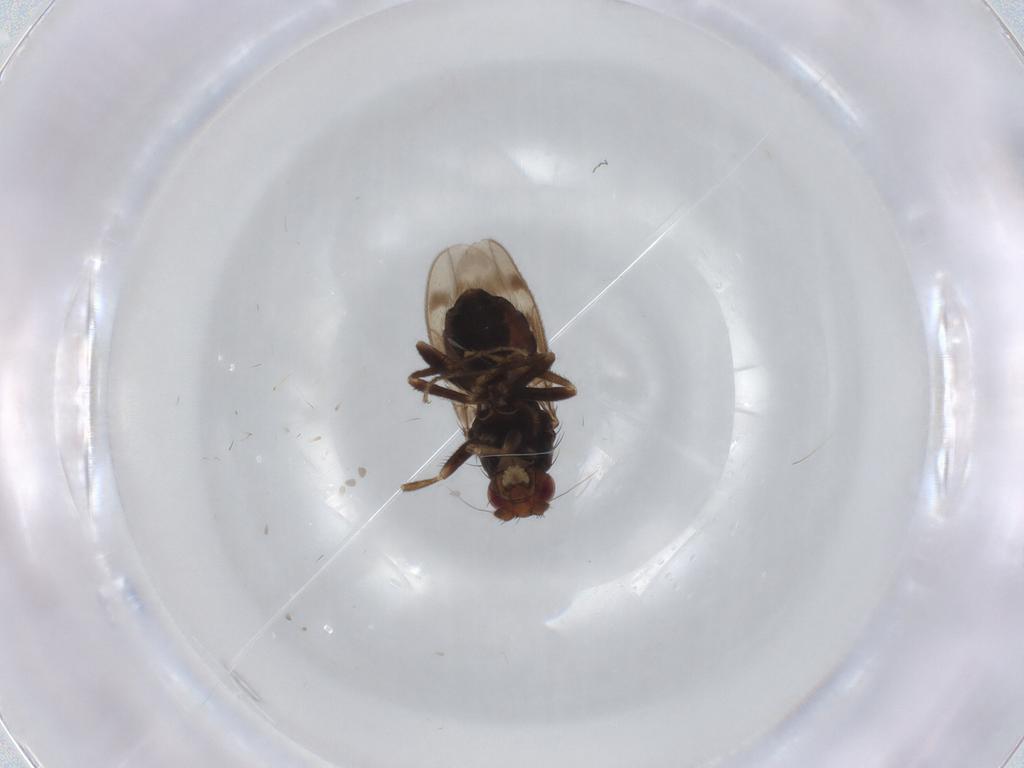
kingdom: Animalia
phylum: Arthropoda
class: Insecta
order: Diptera
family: Sphaeroceridae
